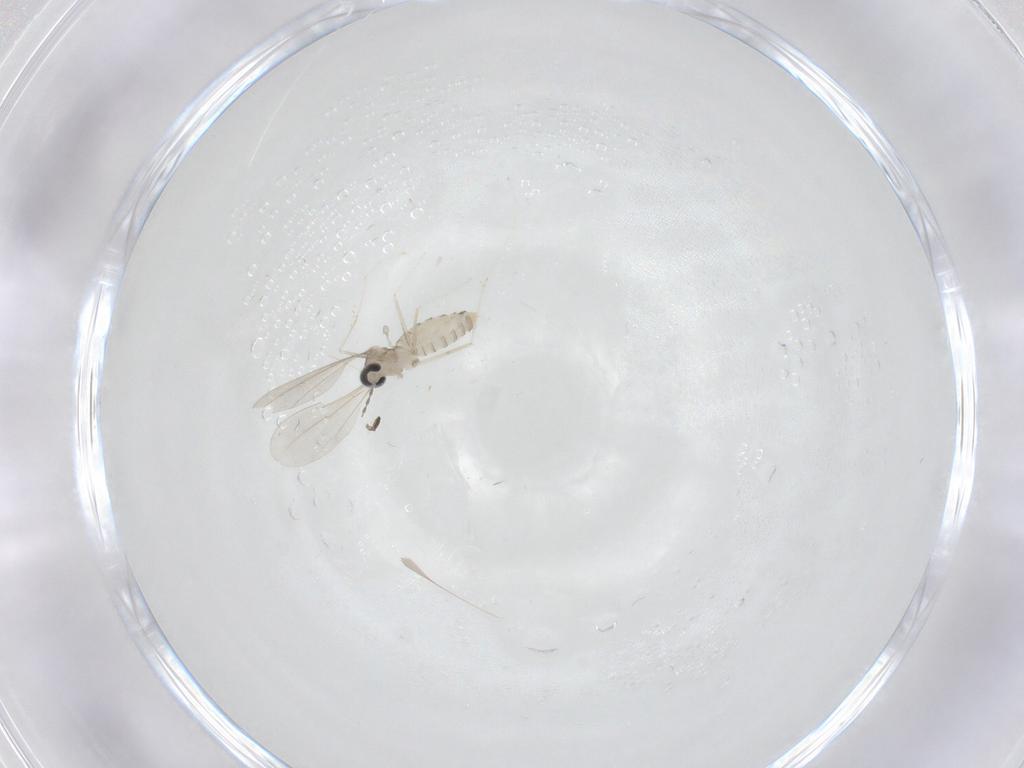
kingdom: Animalia
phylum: Arthropoda
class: Insecta
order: Diptera
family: Cecidomyiidae
